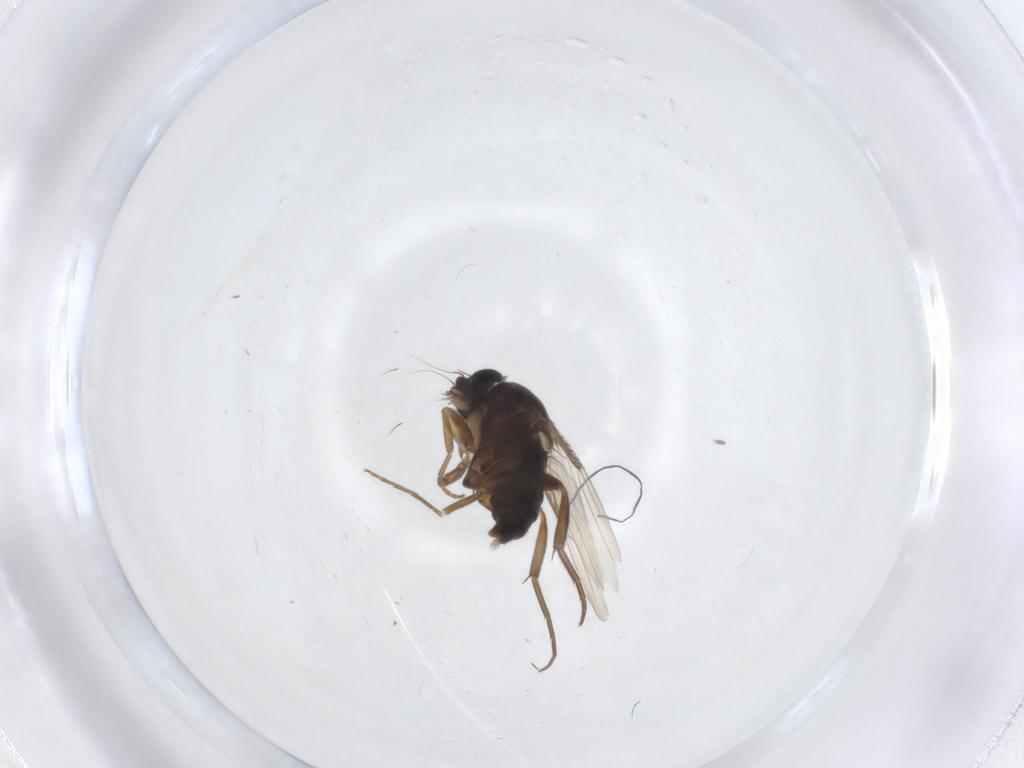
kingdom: Animalia
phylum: Arthropoda
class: Insecta
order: Diptera
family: Phoridae
